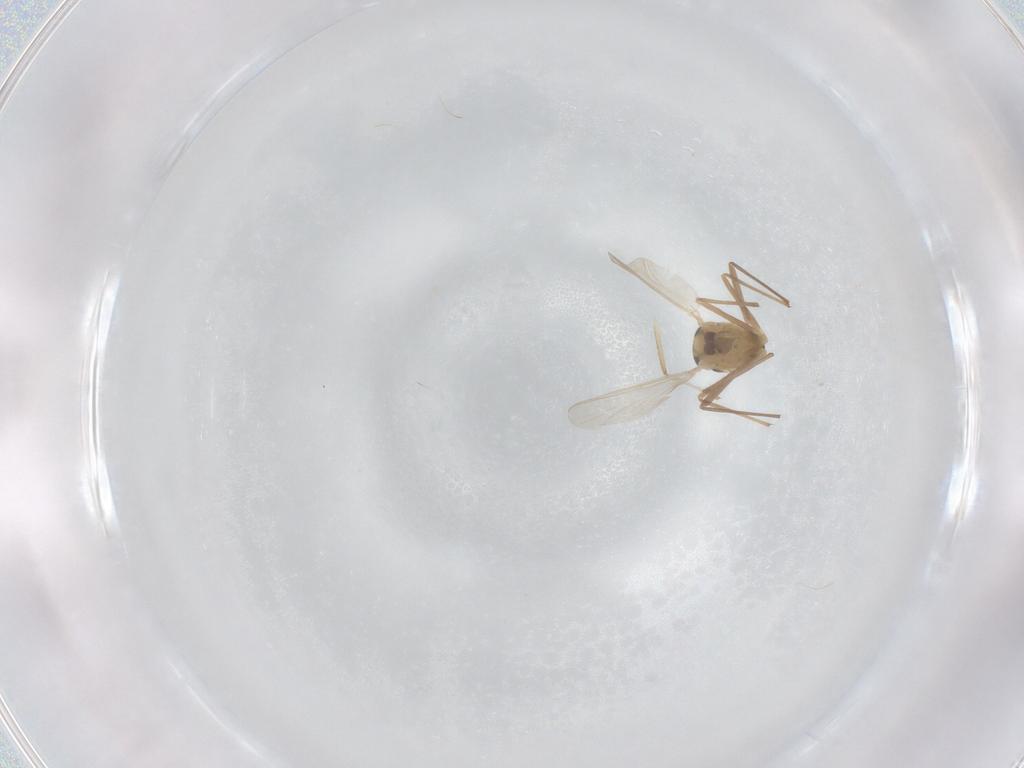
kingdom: Animalia
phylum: Arthropoda
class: Insecta
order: Diptera
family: Chironomidae
